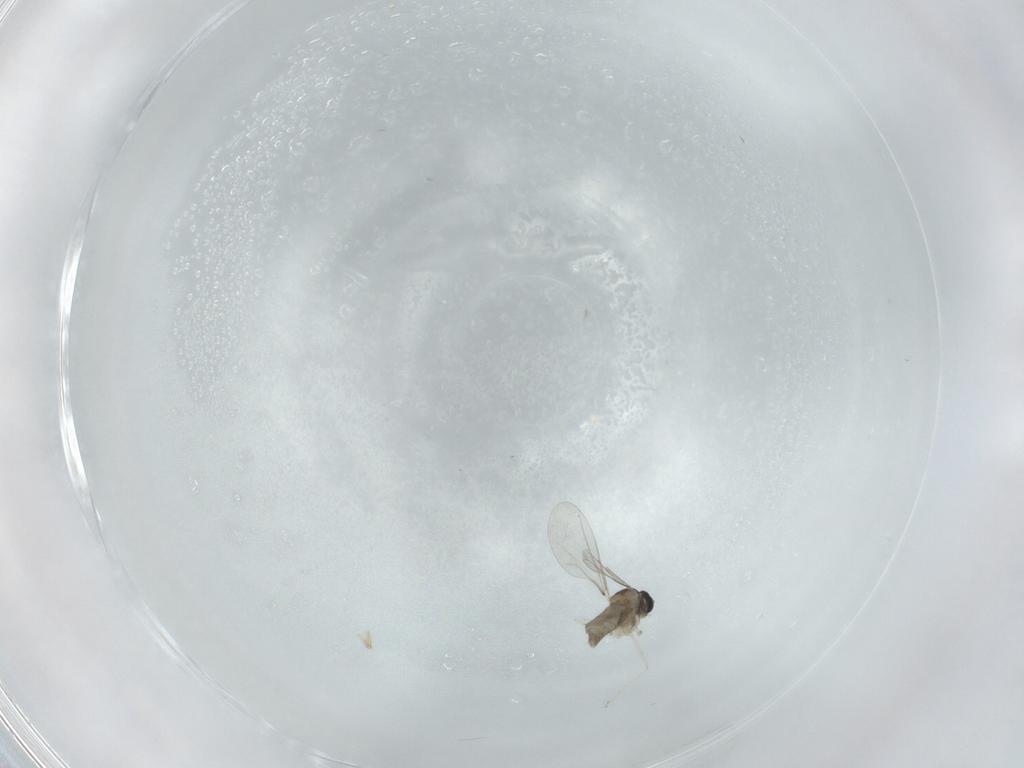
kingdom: Animalia
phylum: Arthropoda
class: Insecta
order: Diptera
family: Cecidomyiidae
